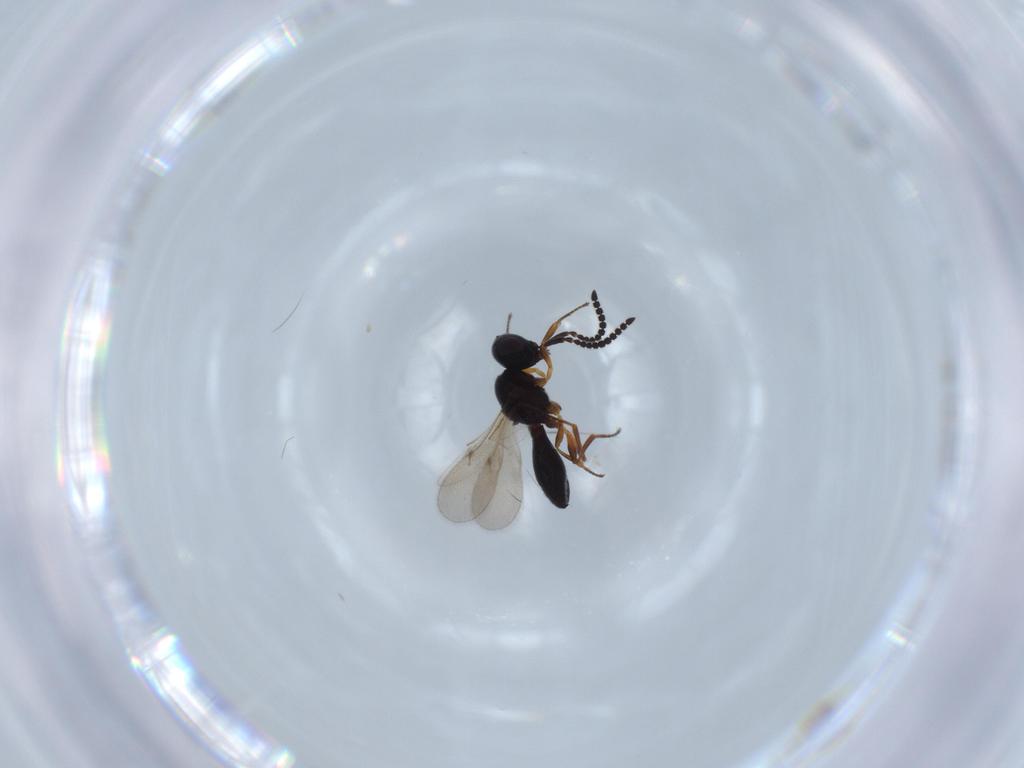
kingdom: Animalia
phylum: Arthropoda
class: Insecta
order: Hymenoptera
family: Scelionidae
